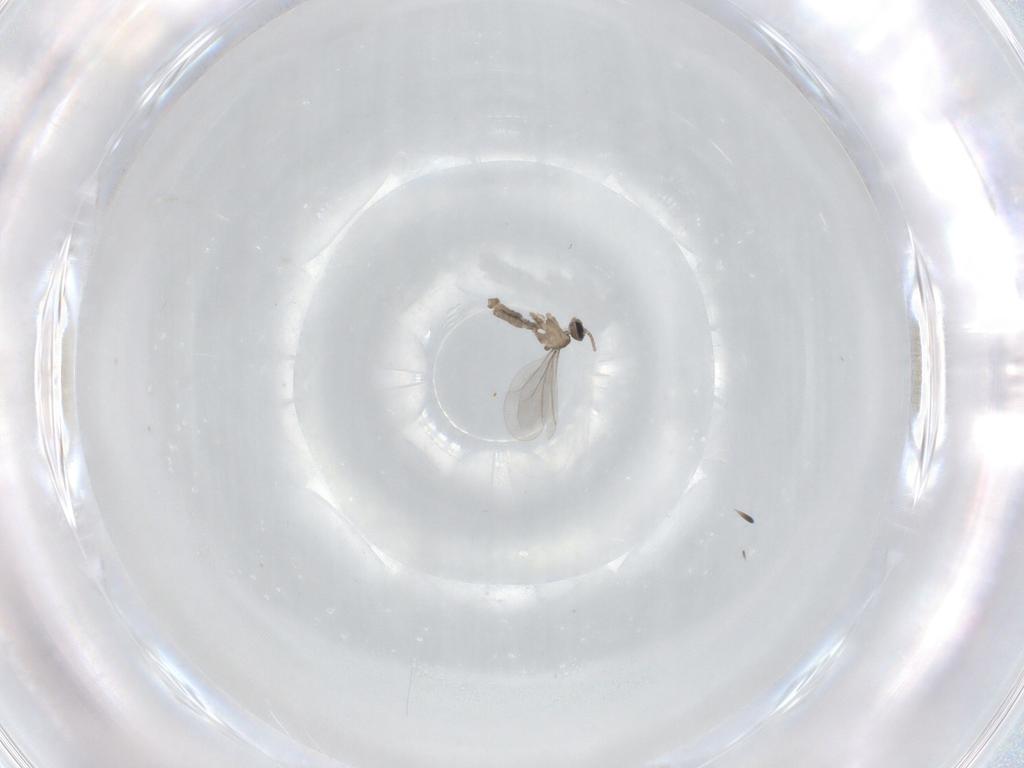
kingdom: Animalia
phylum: Arthropoda
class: Insecta
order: Diptera
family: Cecidomyiidae
